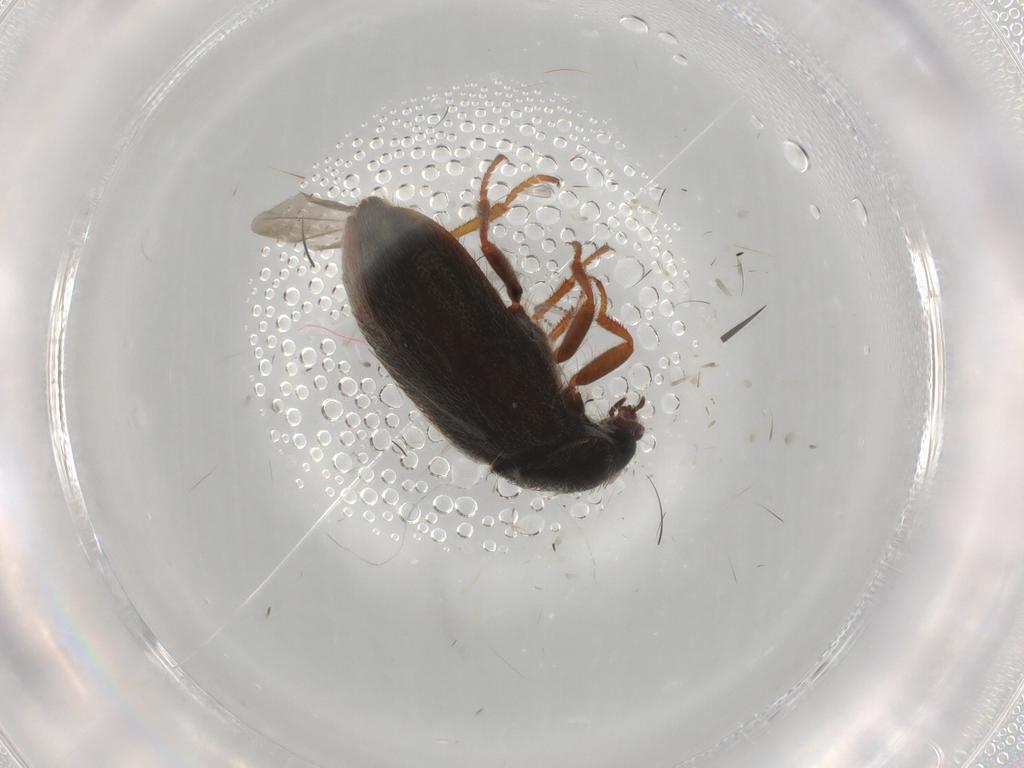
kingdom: Animalia
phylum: Arthropoda
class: Insecta
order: Coleoptera
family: Melyridae
